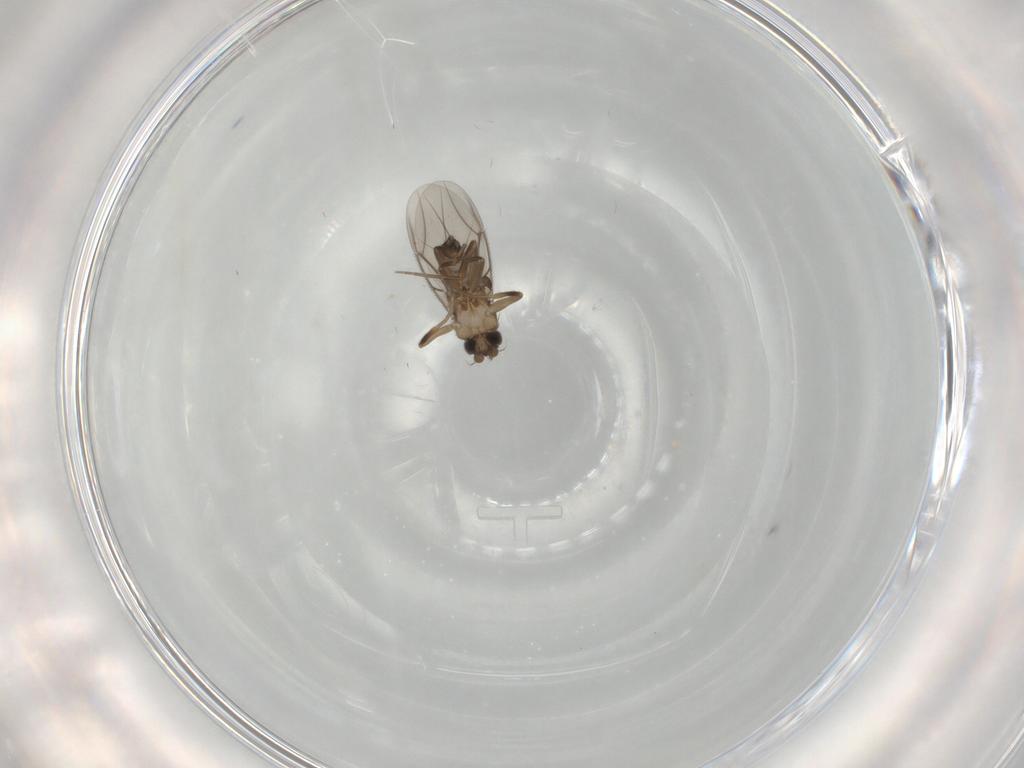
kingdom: Animalia
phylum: Arthropoda
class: Insecta
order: Diptera
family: Cecidomyiidae
